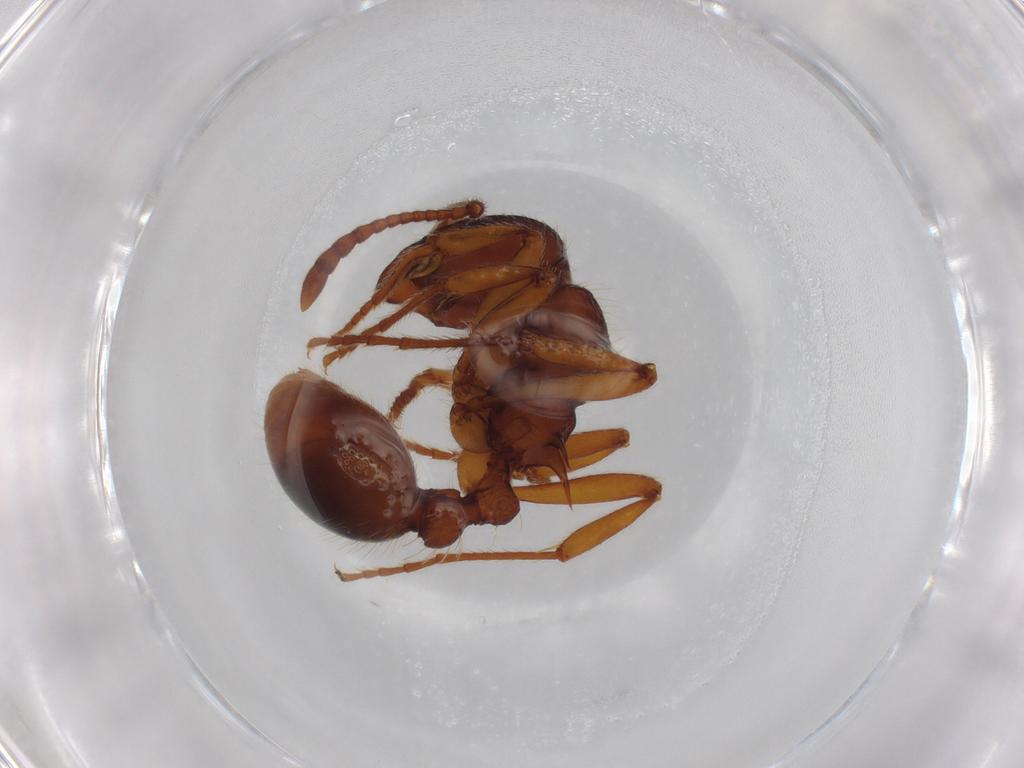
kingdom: Animalia
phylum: Arthropoda
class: Insecta
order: Hymenoptera
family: Formicidae
